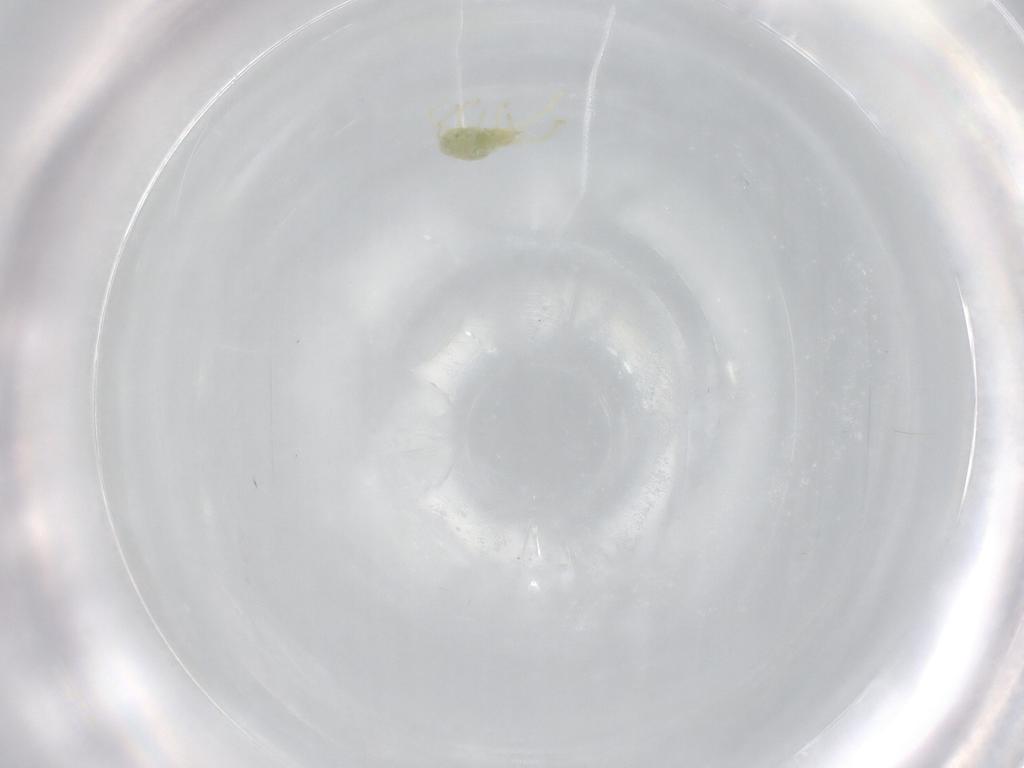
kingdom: Animalia
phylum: Arthropoda
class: Arachnida
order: Trombidiformes
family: Erythraeidae
